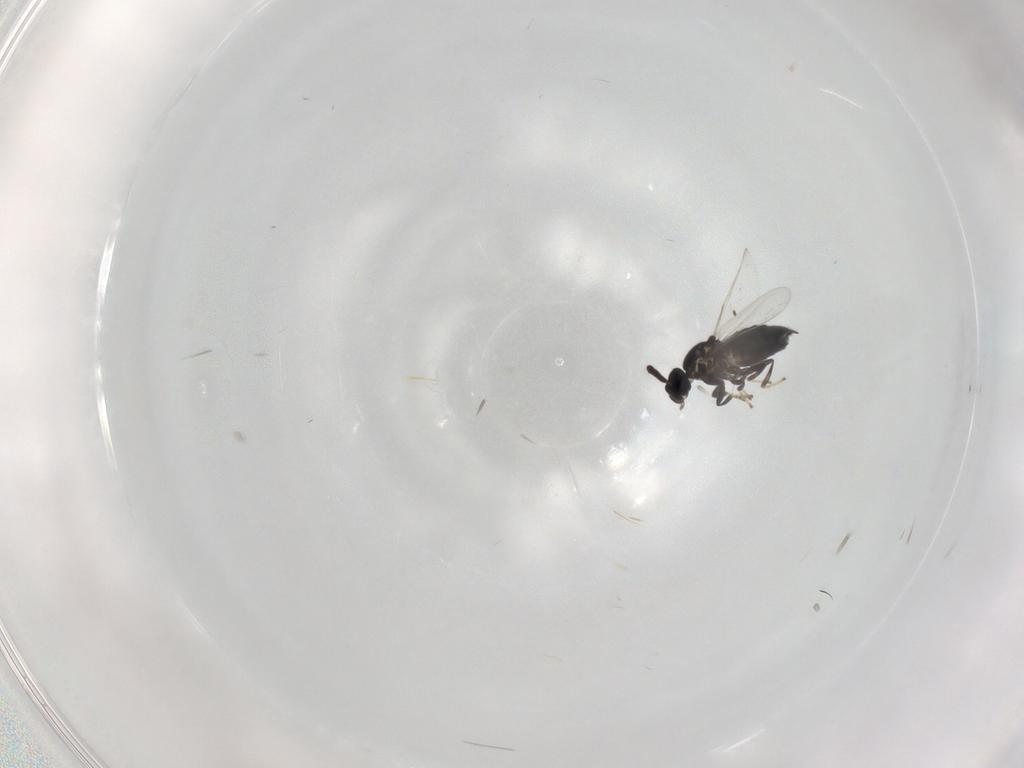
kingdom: Animalia
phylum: Arthropoda
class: Insecta
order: Diptera
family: Scatopsidae
